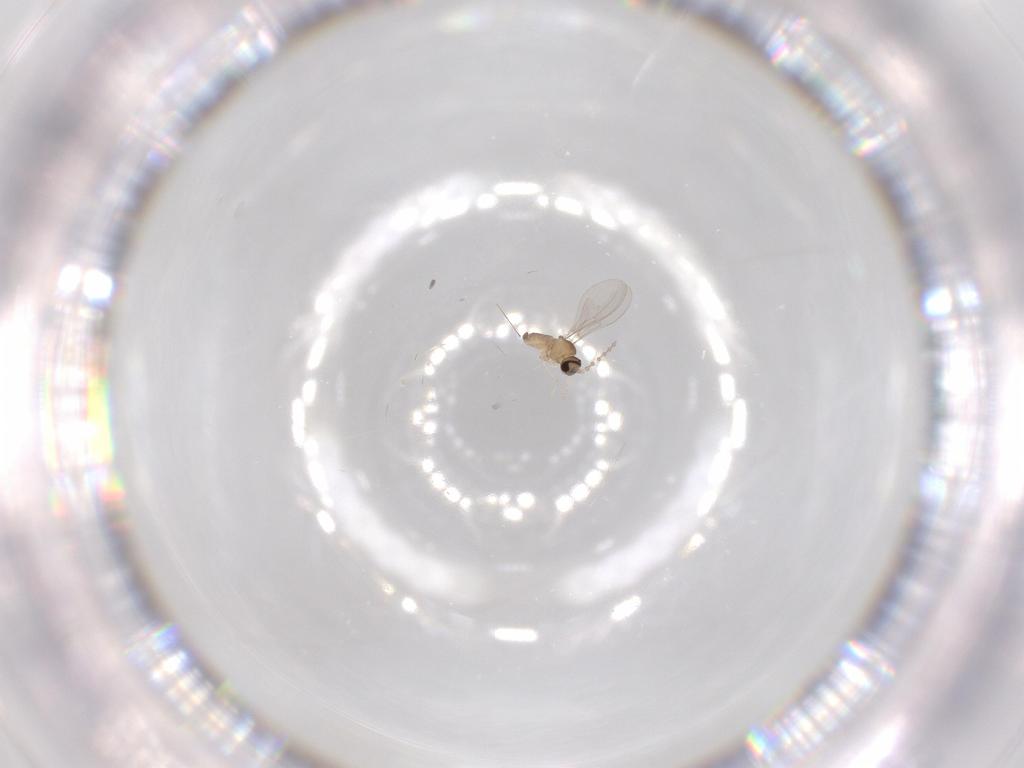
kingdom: Animalia
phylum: Arthropoda
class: Insecta
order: Diptera
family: Cecidomyiidae
